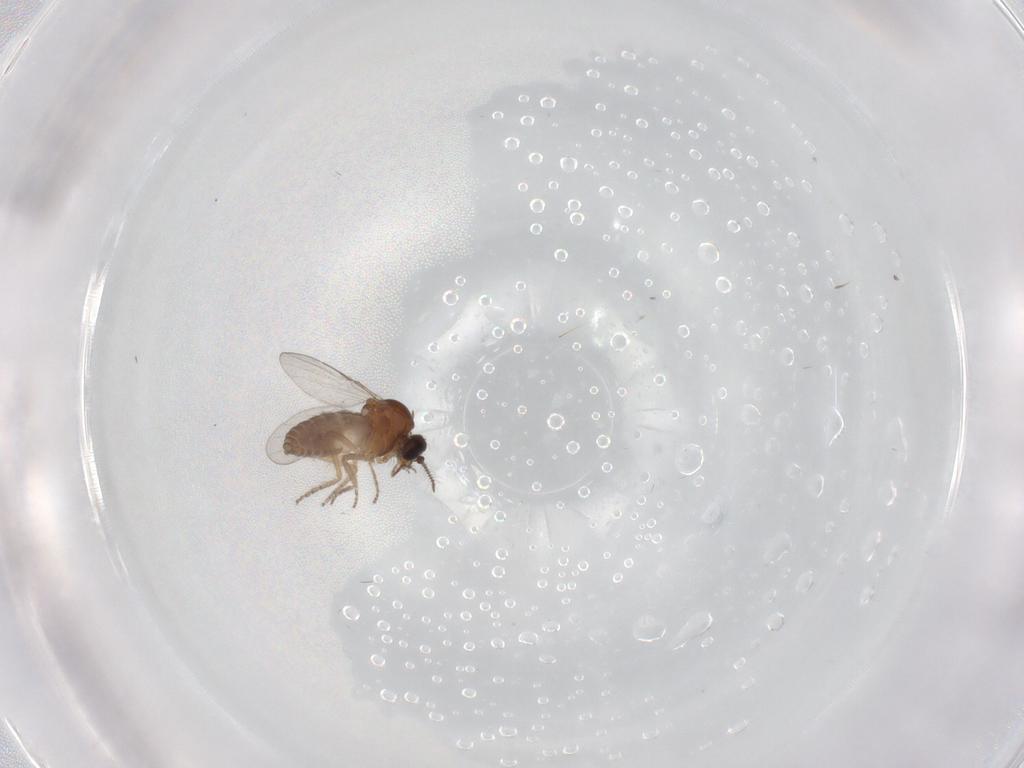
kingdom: Animalia
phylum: Arthropoda
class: Insecta
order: Diptera
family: Ceratopogonidae
